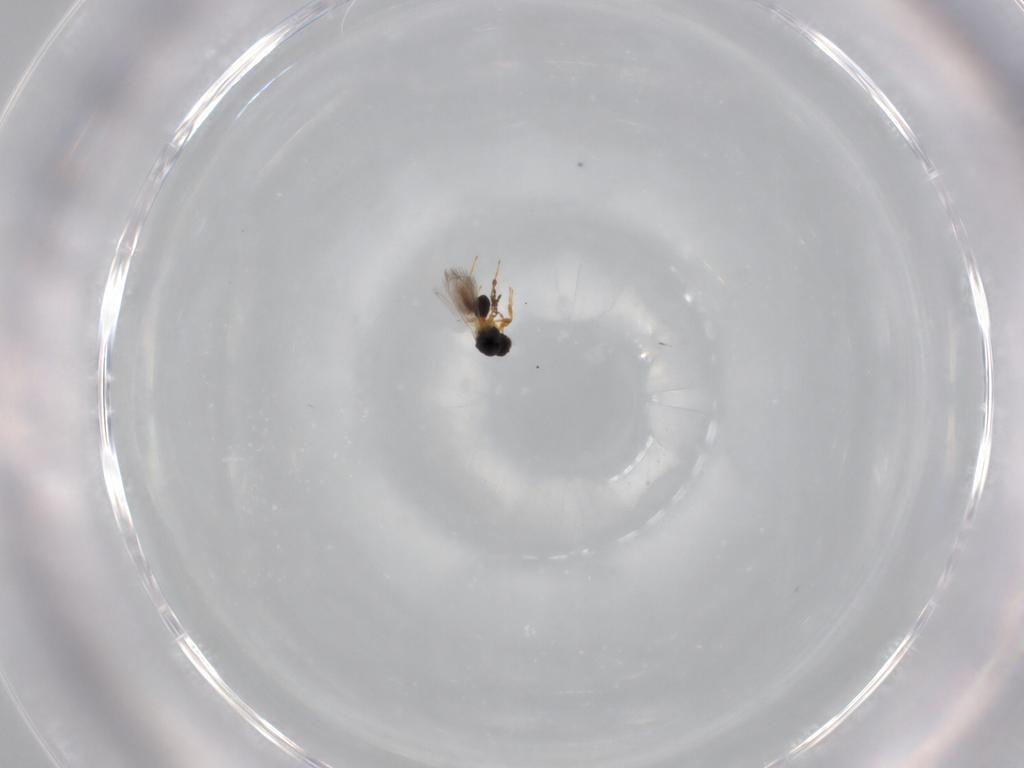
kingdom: Animalia
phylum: Arthropoda
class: Insecta
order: Hymenoptera
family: Platygastridae
